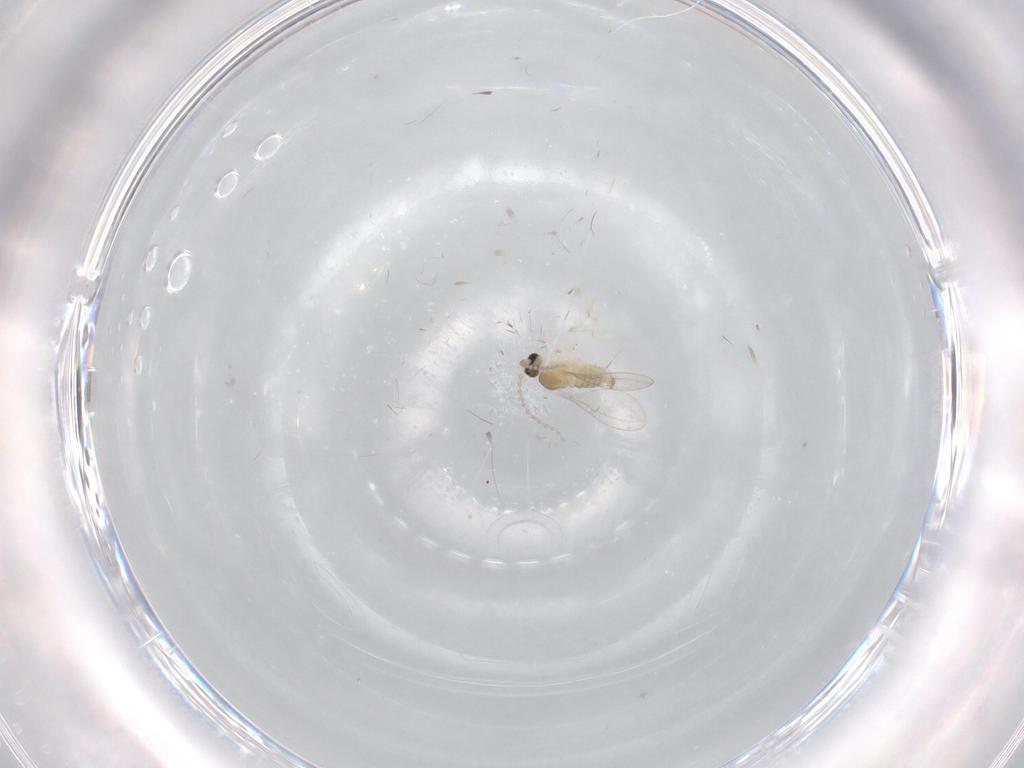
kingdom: Animalia
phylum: Arthropoda
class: Insecta
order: Diptera
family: Cecidomyiidae
